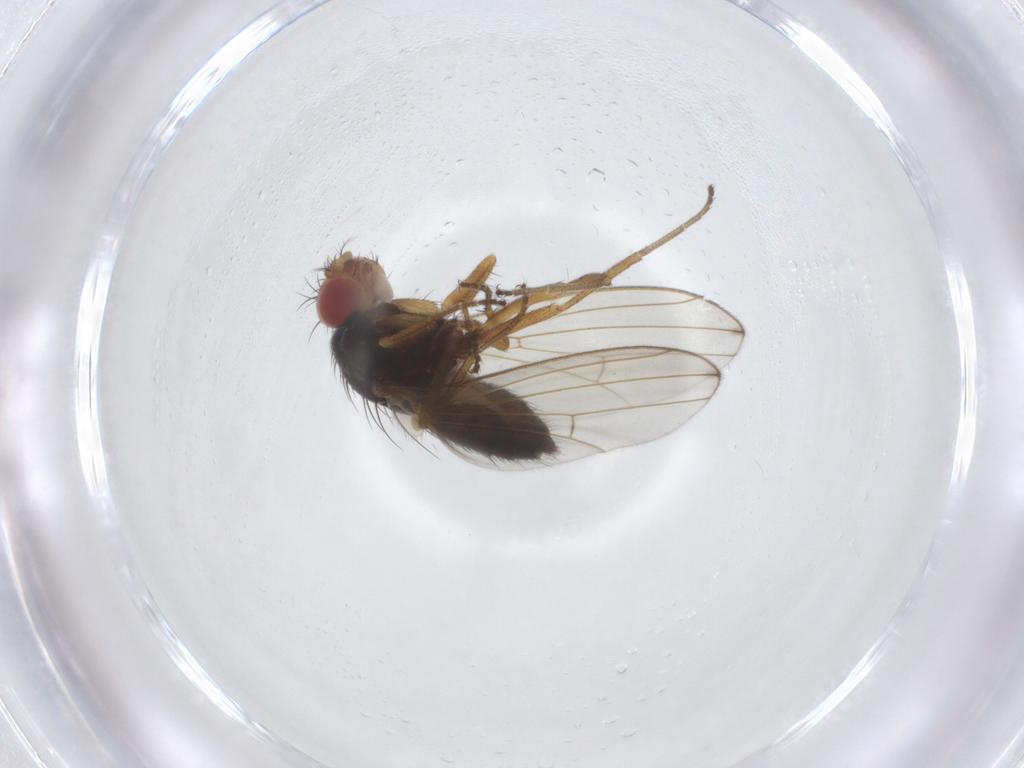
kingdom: Animalia
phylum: Arthropoda
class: Insecta
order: Diptera
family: Drosophilidae
